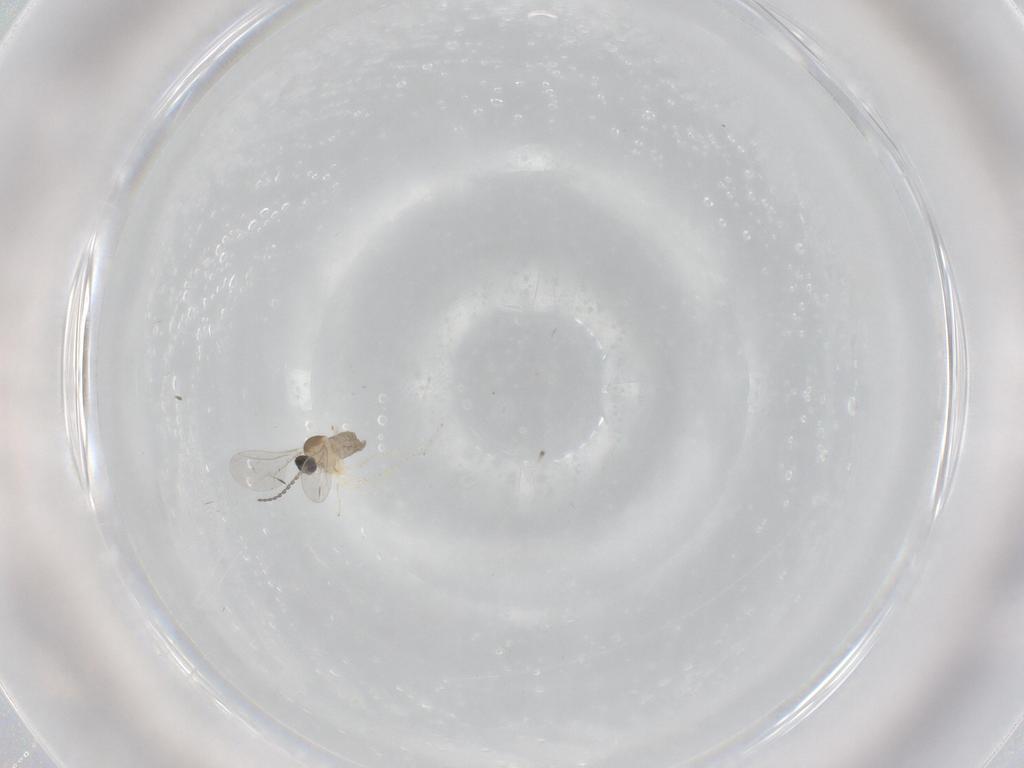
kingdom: Animalia
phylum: Arthropoda
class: Insecta
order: Diptera
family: Cecidomyiidae
